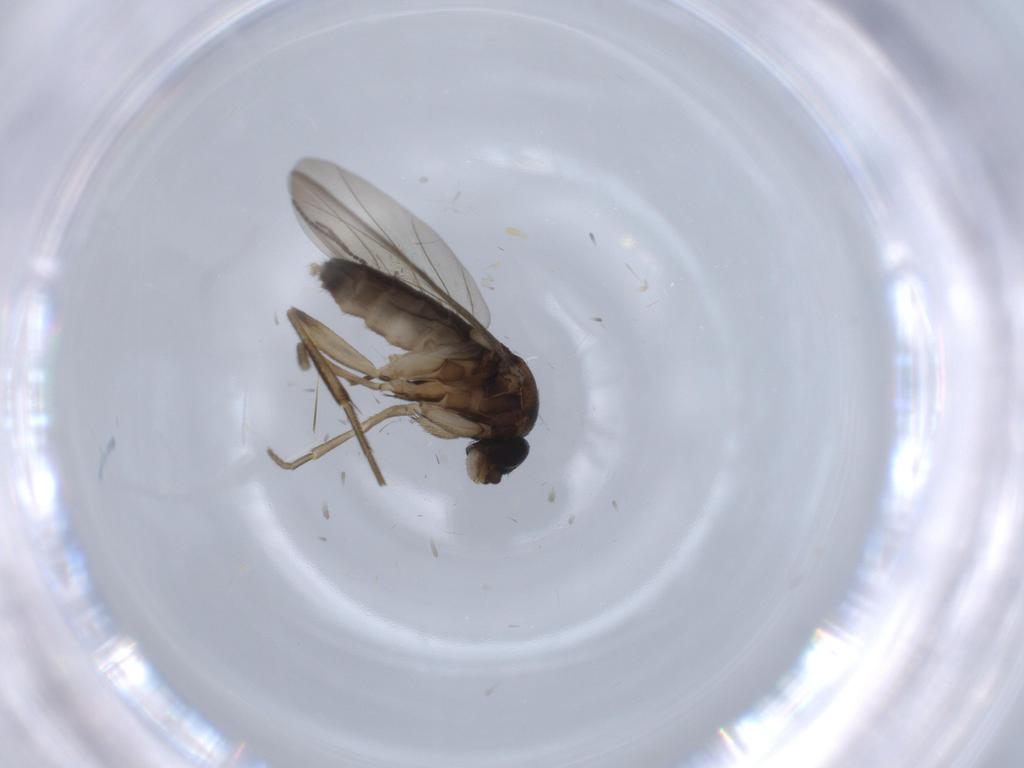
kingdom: Animalia
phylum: Arthropoda
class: Insecta
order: Diptera
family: Phoridae
